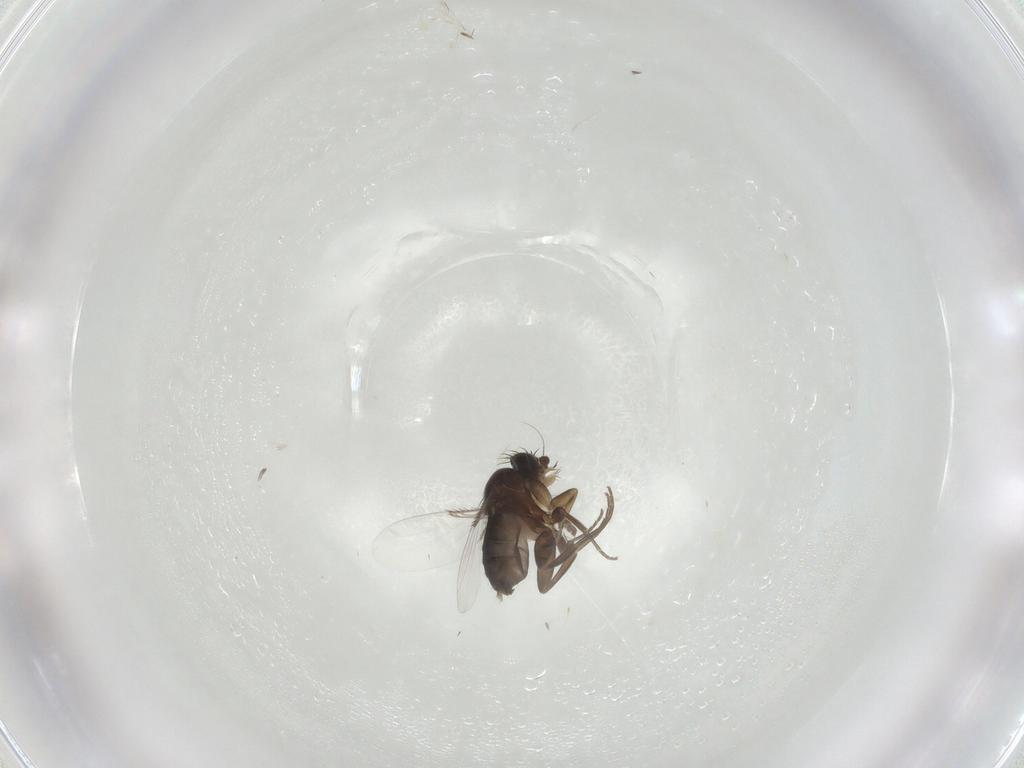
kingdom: Animalia
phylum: Arthropoda
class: Insecta
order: Diptera
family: Phoridae
